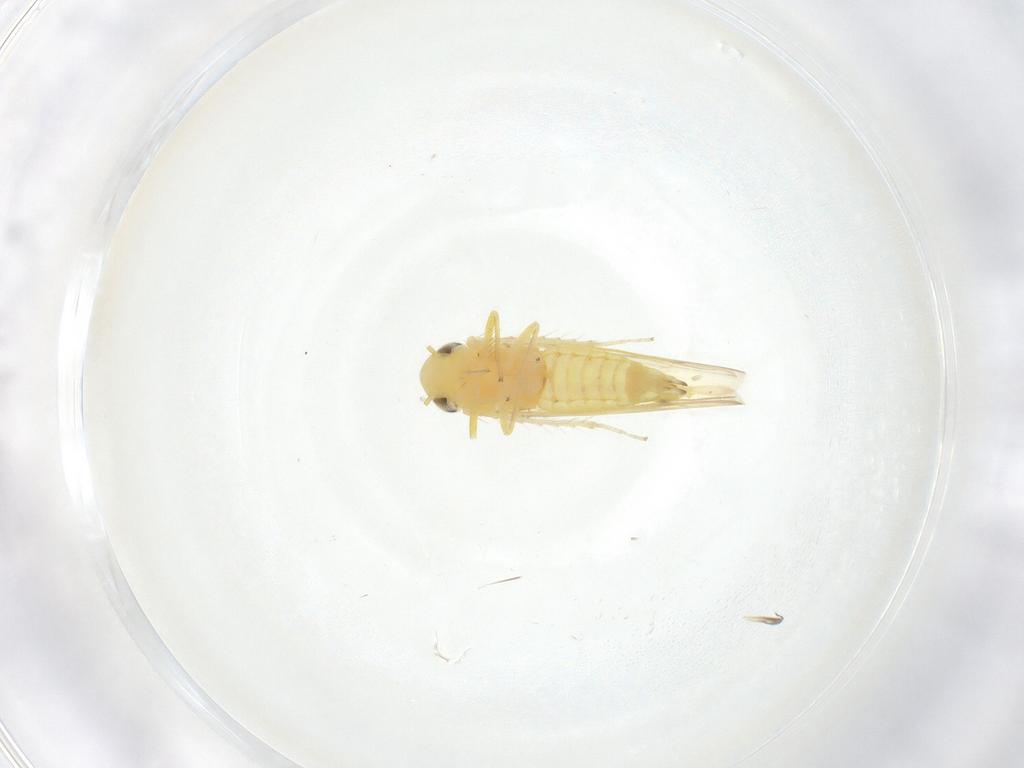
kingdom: Animalia
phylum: Arthropoda
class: Insecta
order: Hemiptera
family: Cicadellidae
